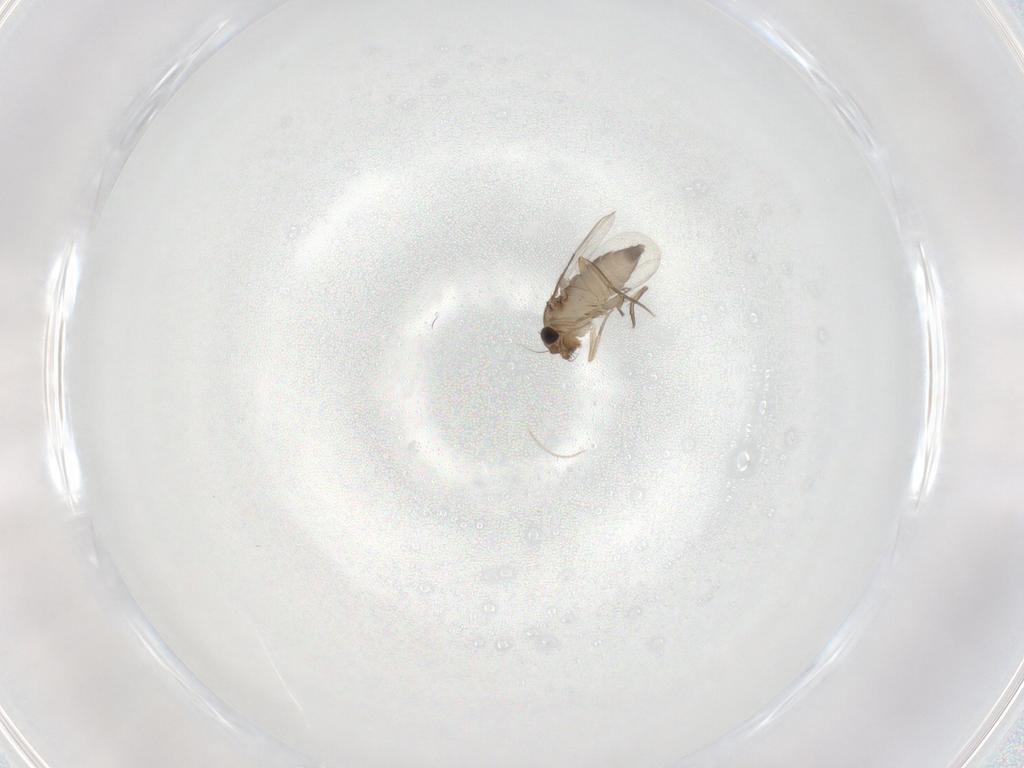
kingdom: Animalia
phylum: Arthropoda
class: Insecta
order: Diptera
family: Cecidomyiidae
